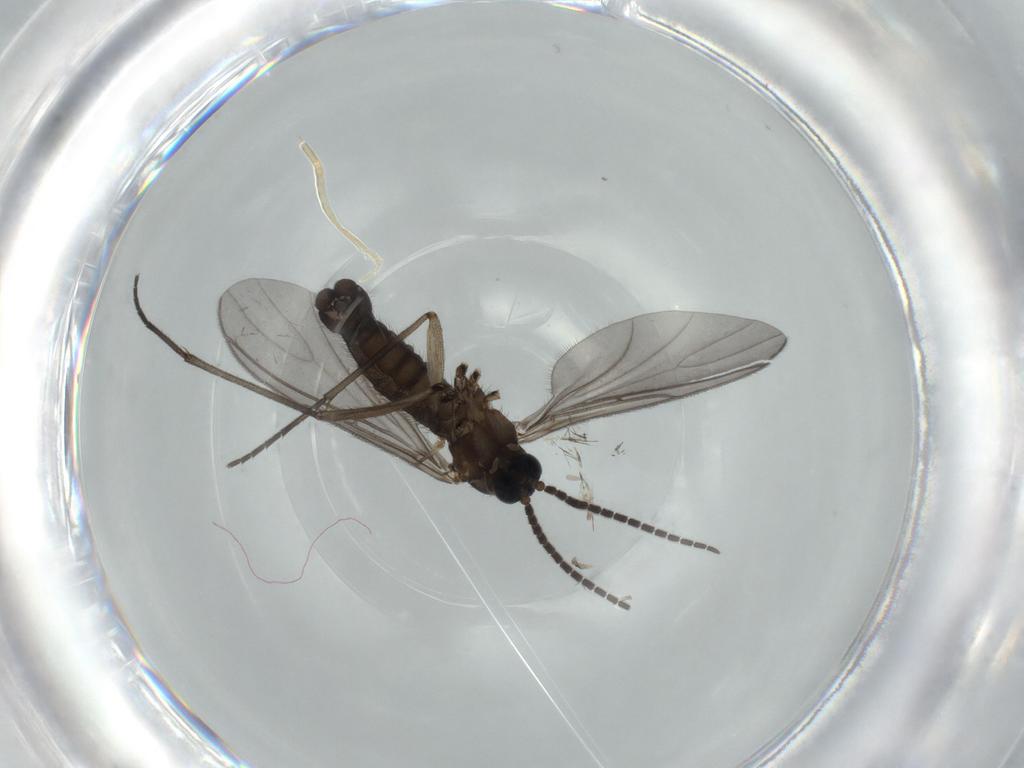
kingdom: Animalia
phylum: Arthropoda
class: Insecta
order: Diptera
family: Sciaridae
